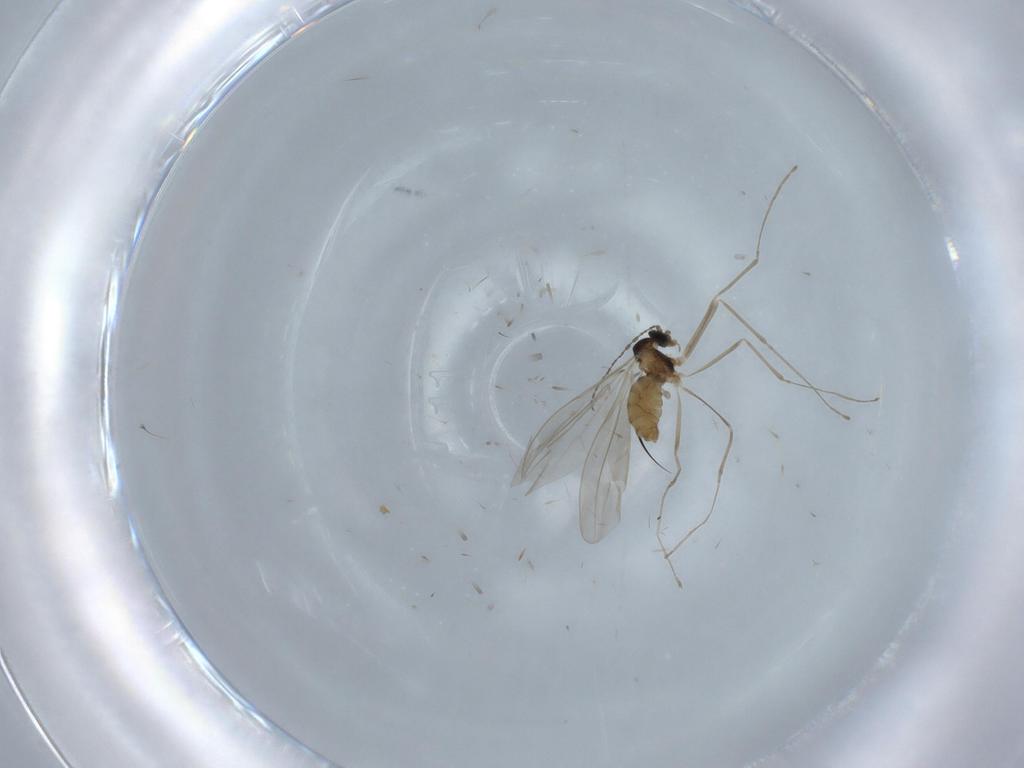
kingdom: Animalia
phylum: Arthropoda
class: Insecta
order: Diptera
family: Cecidomyiidae
